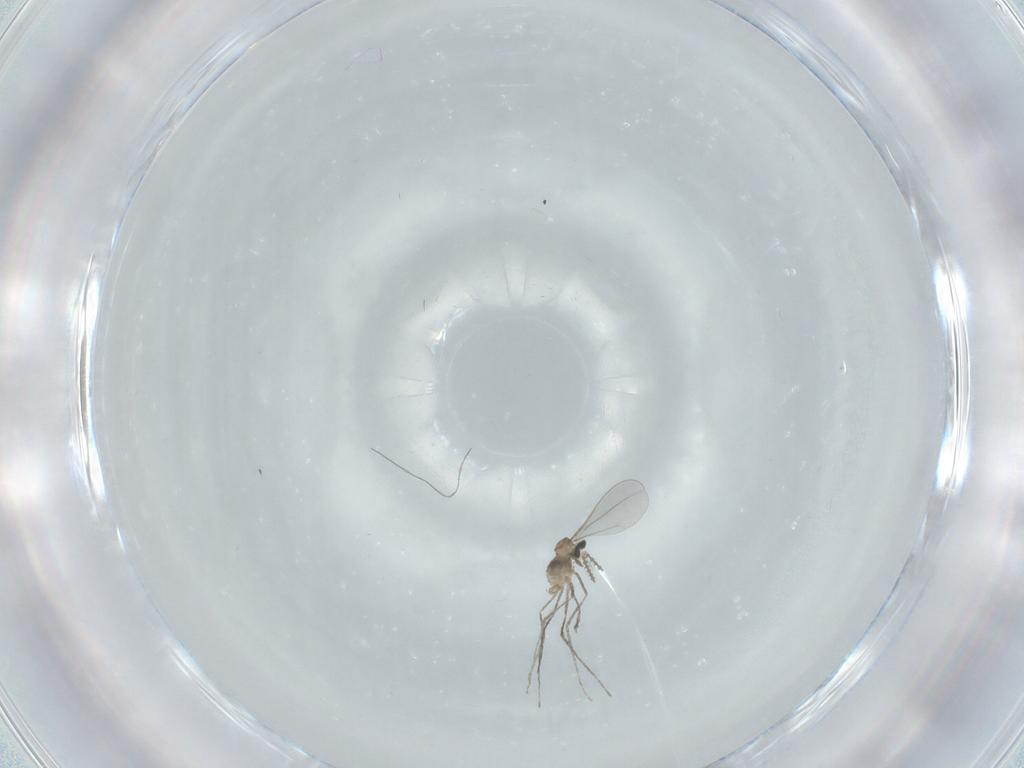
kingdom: Animalia
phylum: Arthropoda
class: Insecta
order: Diptera
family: Cecidomyiidae
